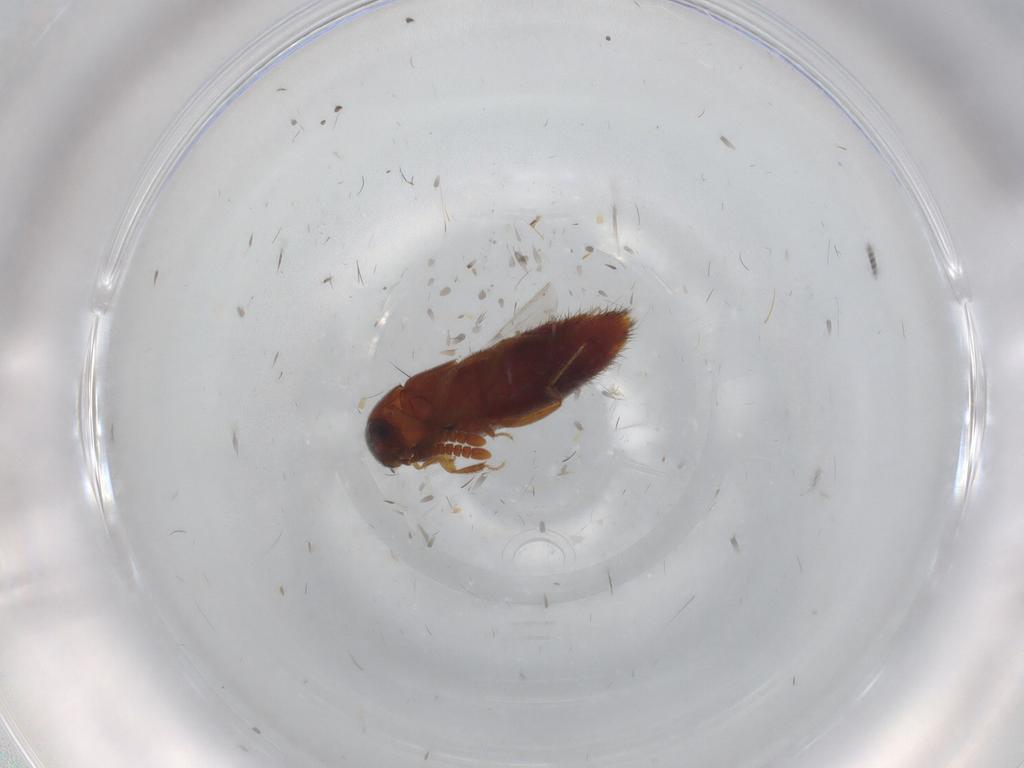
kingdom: Animalia
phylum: Arthropoda
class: Insecta
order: Coleoptera
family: Staphylinidae
